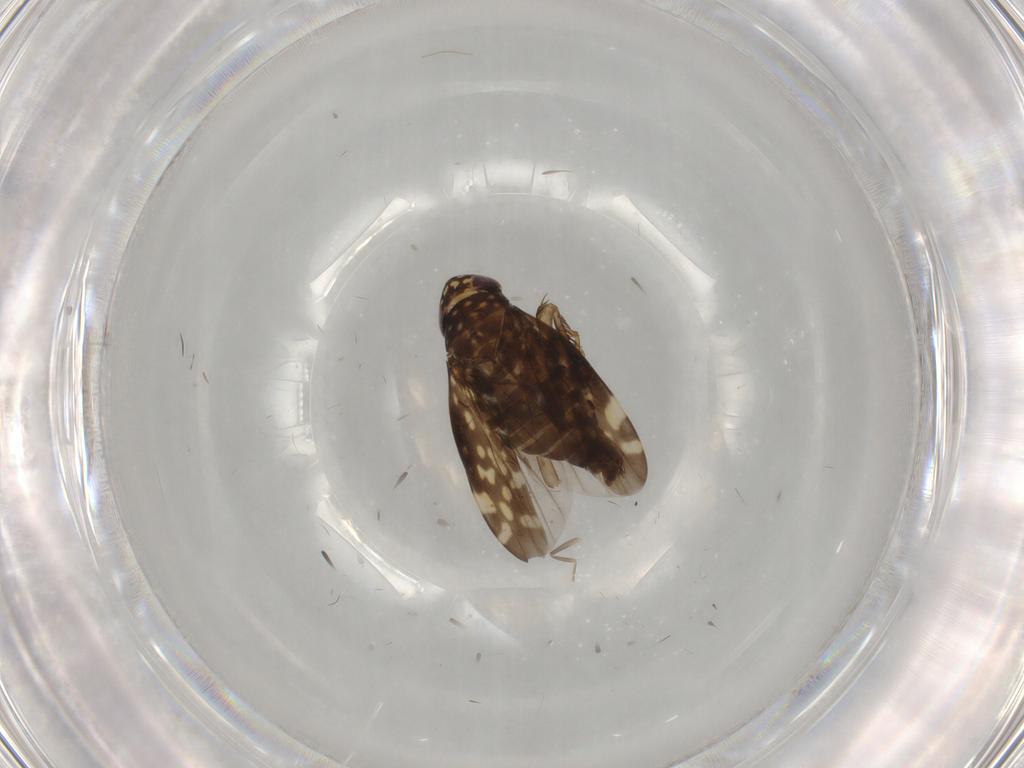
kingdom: Animalia
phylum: Arthropoda
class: Insecta
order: Hemiptera
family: Cicadellidae
